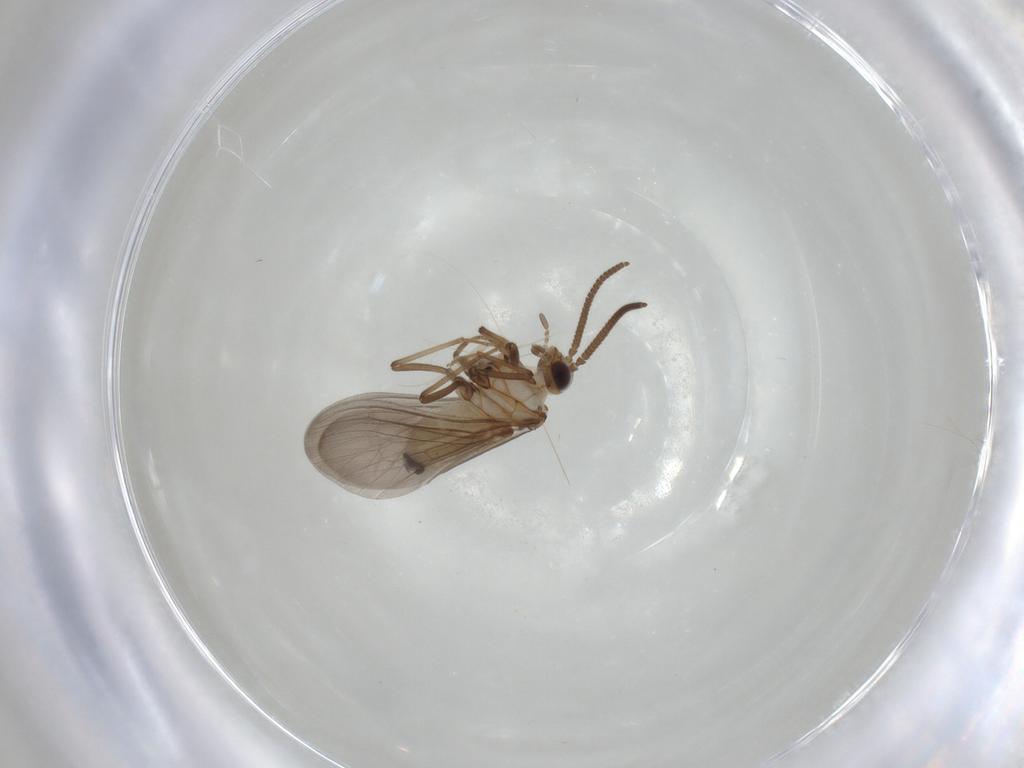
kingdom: Animalia
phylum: Arthropoda
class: Insecta
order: Neuroptera
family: Coniopterygidae
